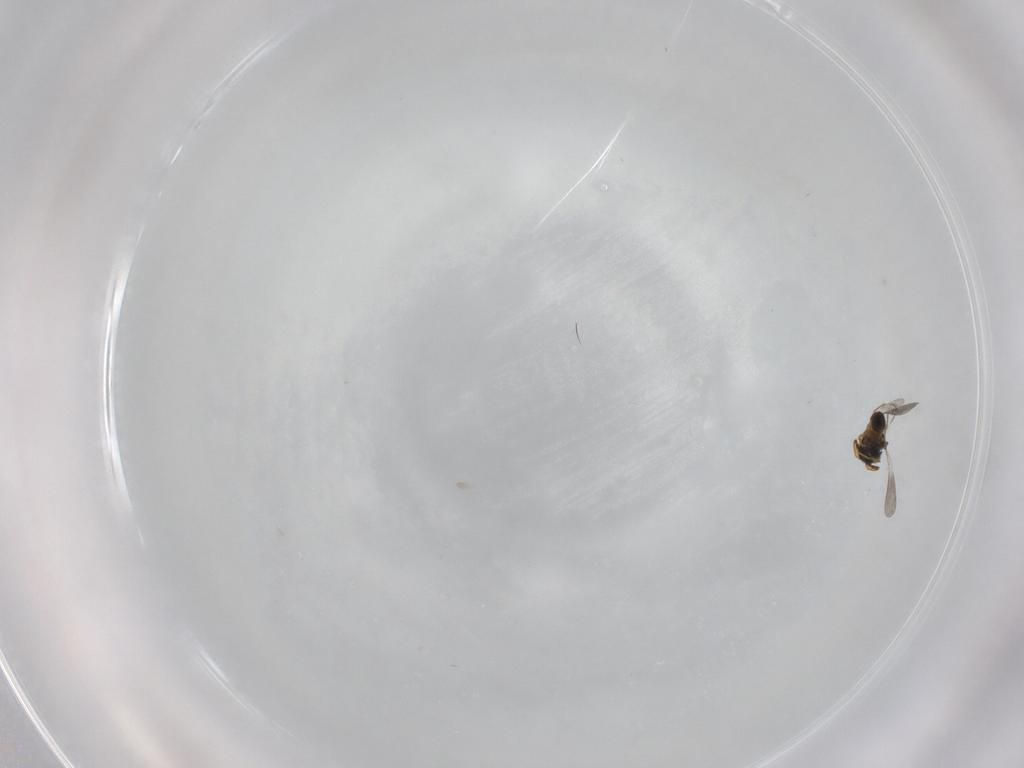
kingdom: Animalia
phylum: Arthropoda
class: Insecta
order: Hymenoptera
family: Platygastridae
